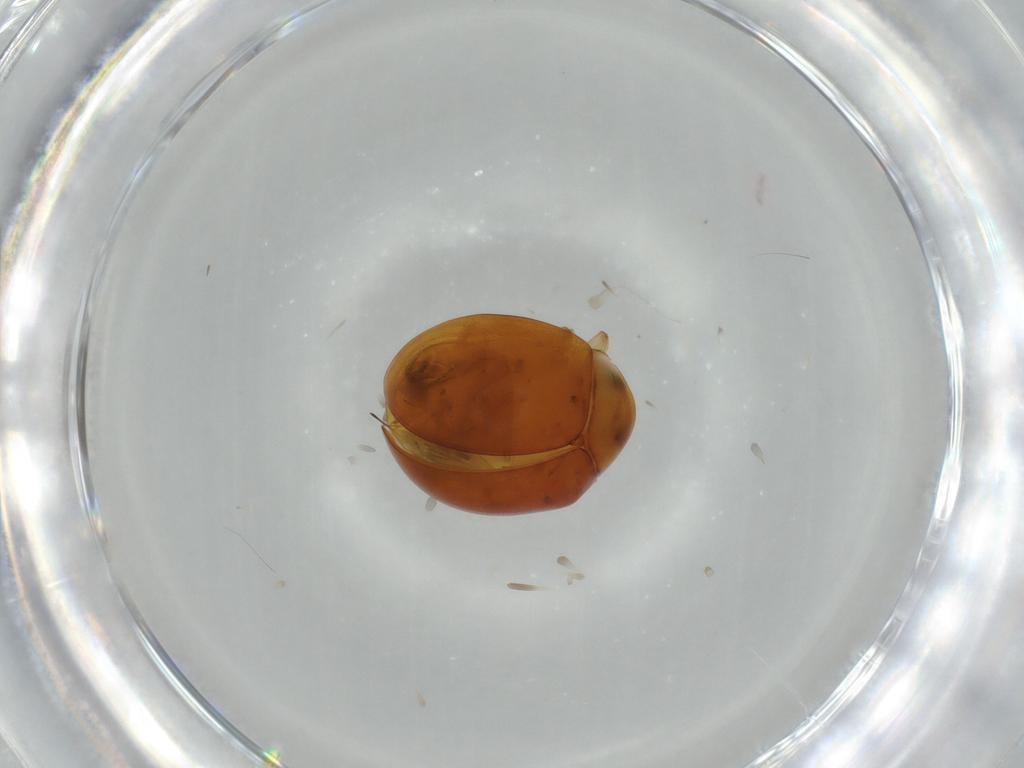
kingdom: Animalia
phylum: Arthropoda
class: Insecta
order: Coleoptera
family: Coccinellidae
